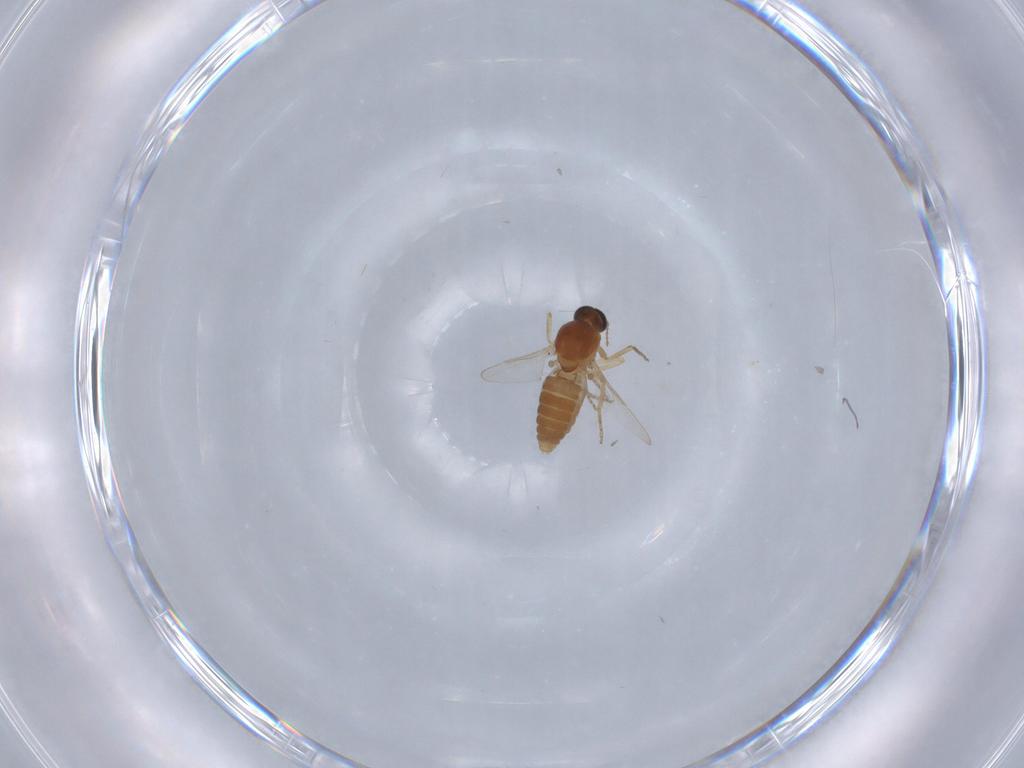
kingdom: Animalia
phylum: Arthropoda
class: Insecta
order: Diptera
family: Ceratopogonidae
